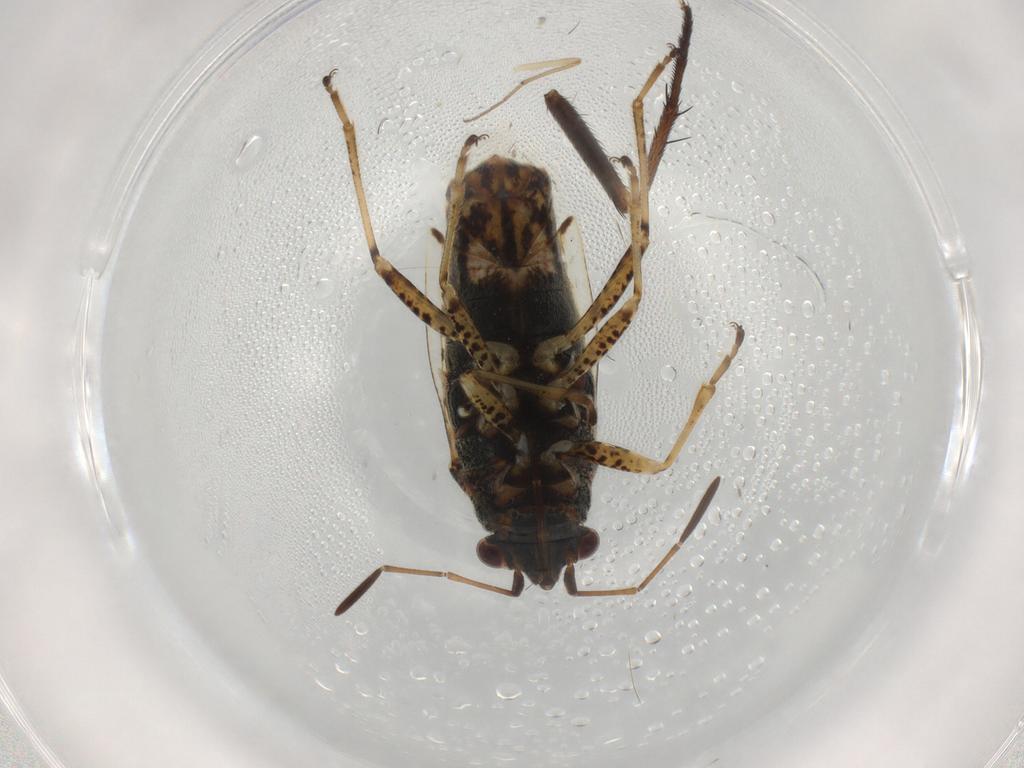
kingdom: Animalia
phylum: Arthropoda
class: Insecta
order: Hemiptera
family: Lygaeidae
